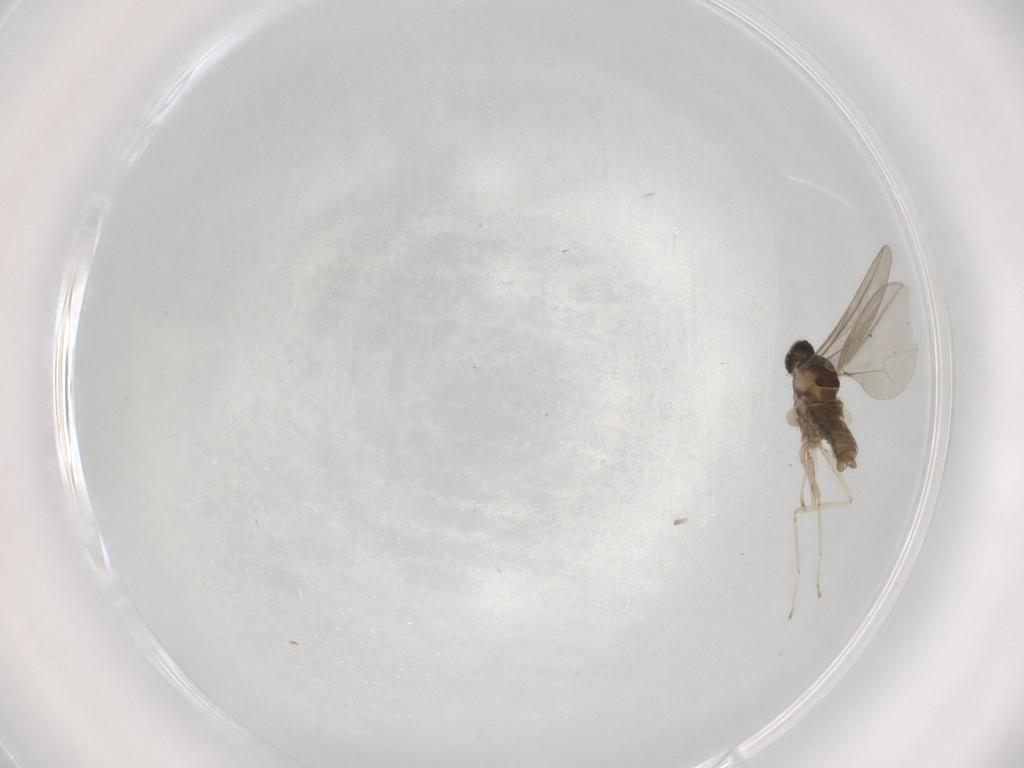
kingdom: Animalia
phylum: Arthropoda
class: Insecta
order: Diptera
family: Cecidomyiidae
